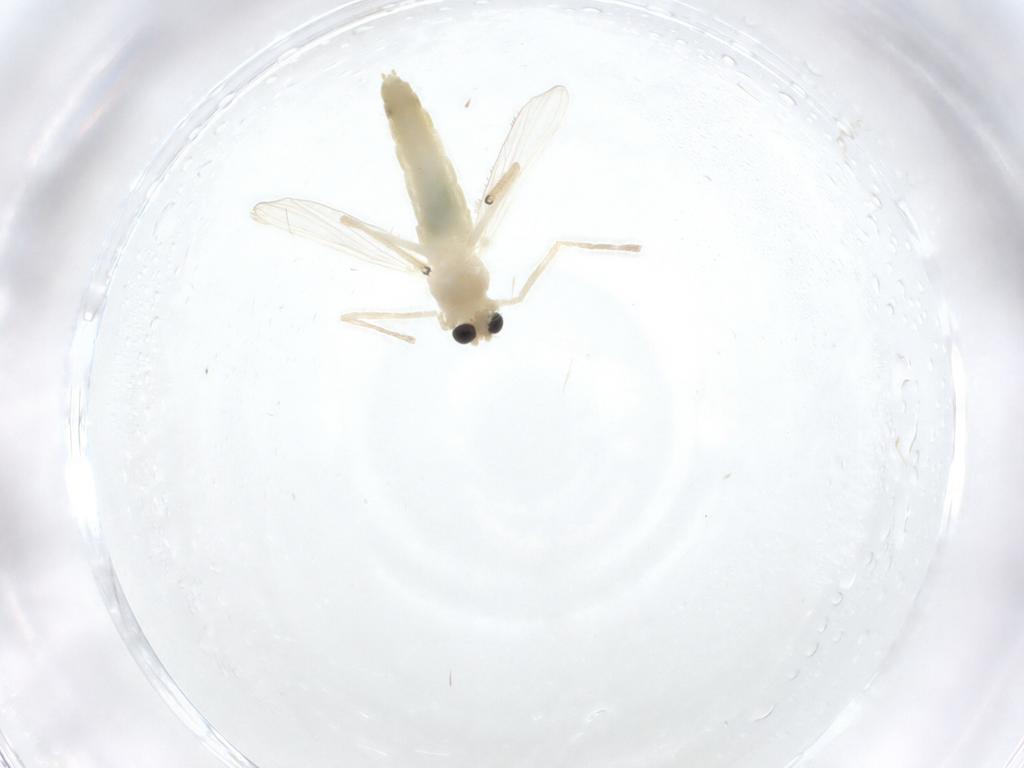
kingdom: Animalia
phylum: Arthropoda
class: Insecta
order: Diptera
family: Chironomidae
